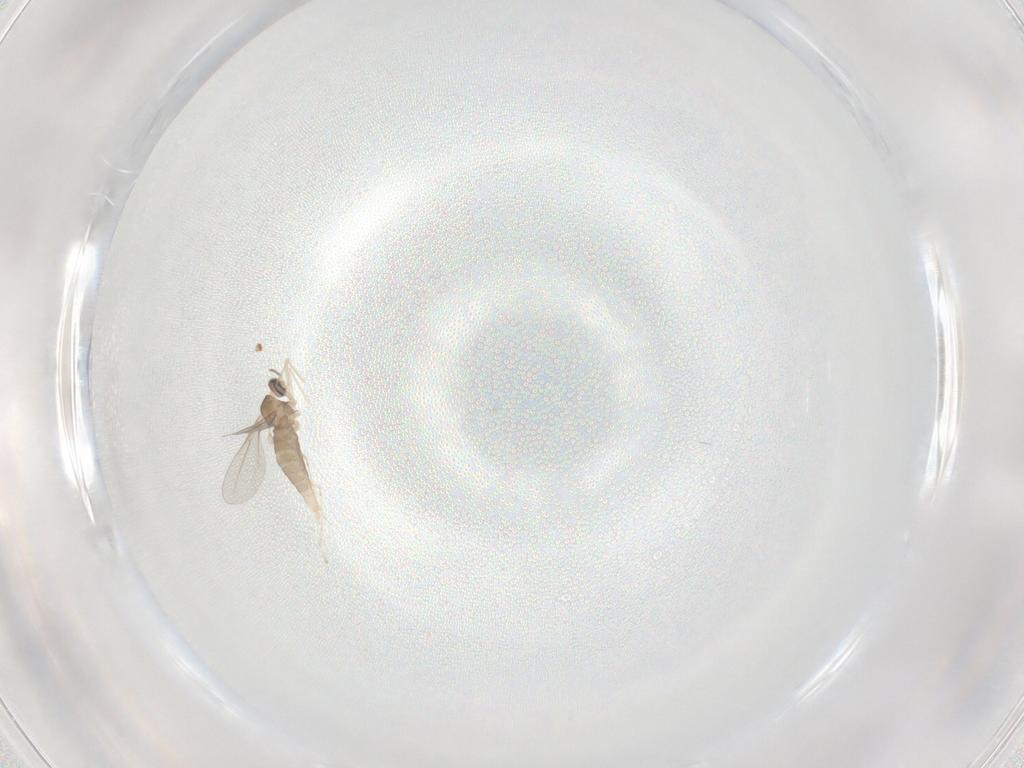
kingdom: Animalia
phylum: Arthropoda
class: Insecta
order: Diptera
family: Cecidomyiidae
